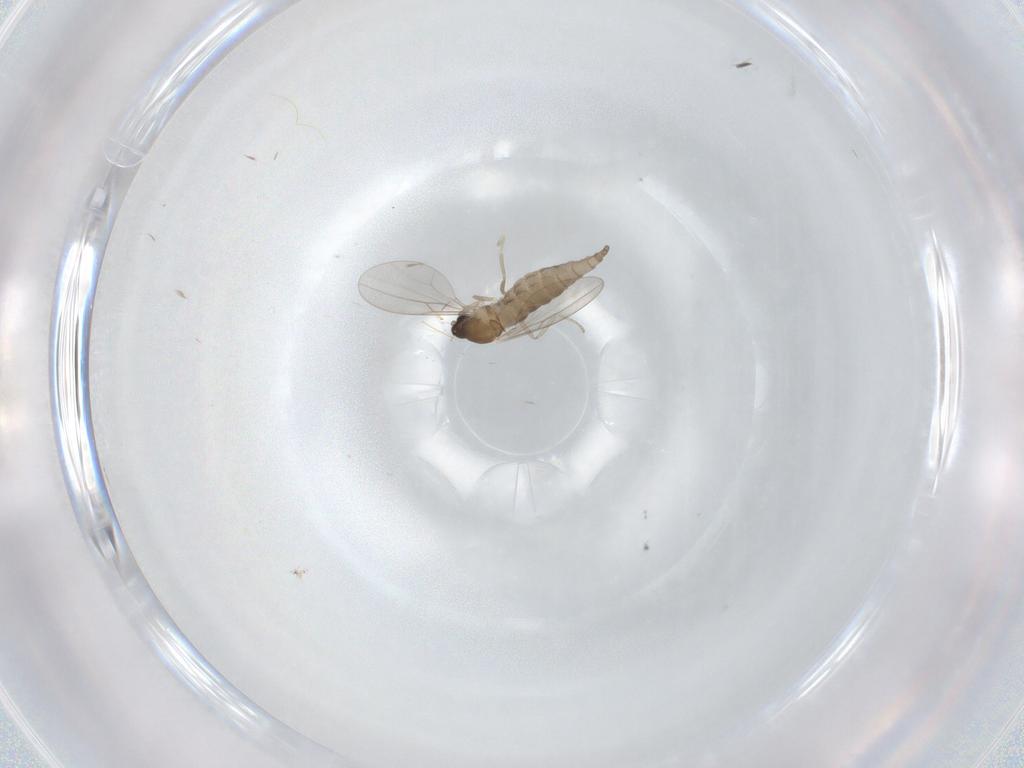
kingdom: Animalia
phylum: Arthropoda
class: Insecta
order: Diptera
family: Cecidomyiidae
